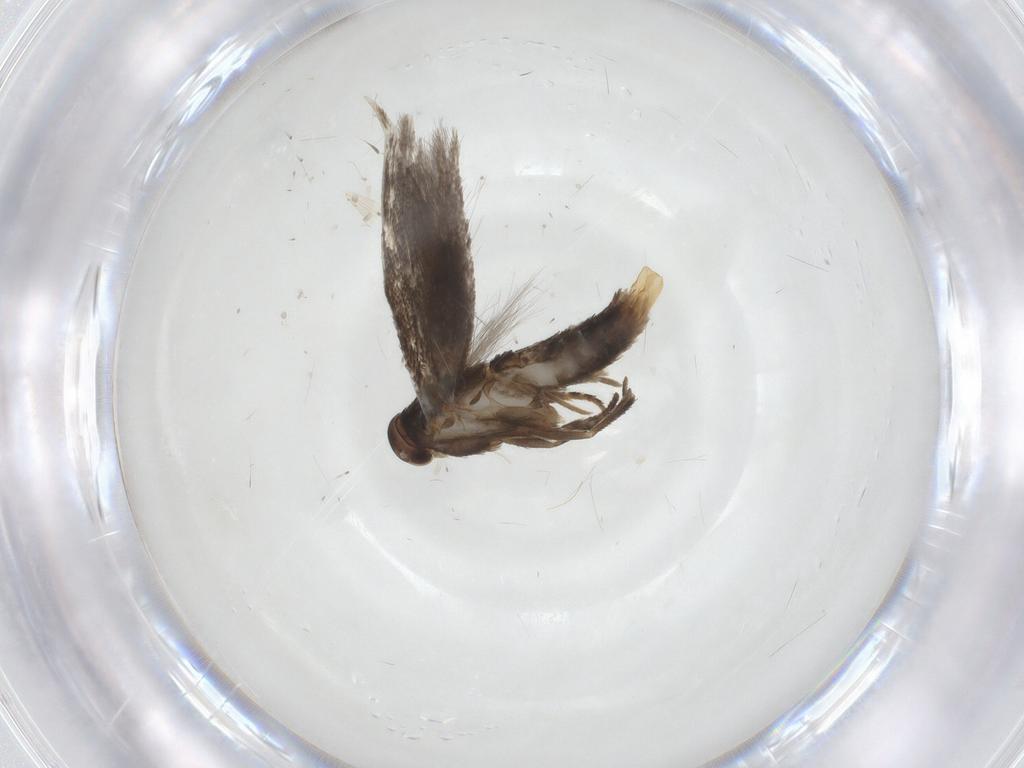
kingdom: Animalia
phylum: Arthropoda
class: Insecta
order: Lepidoptera
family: Elachistidae
